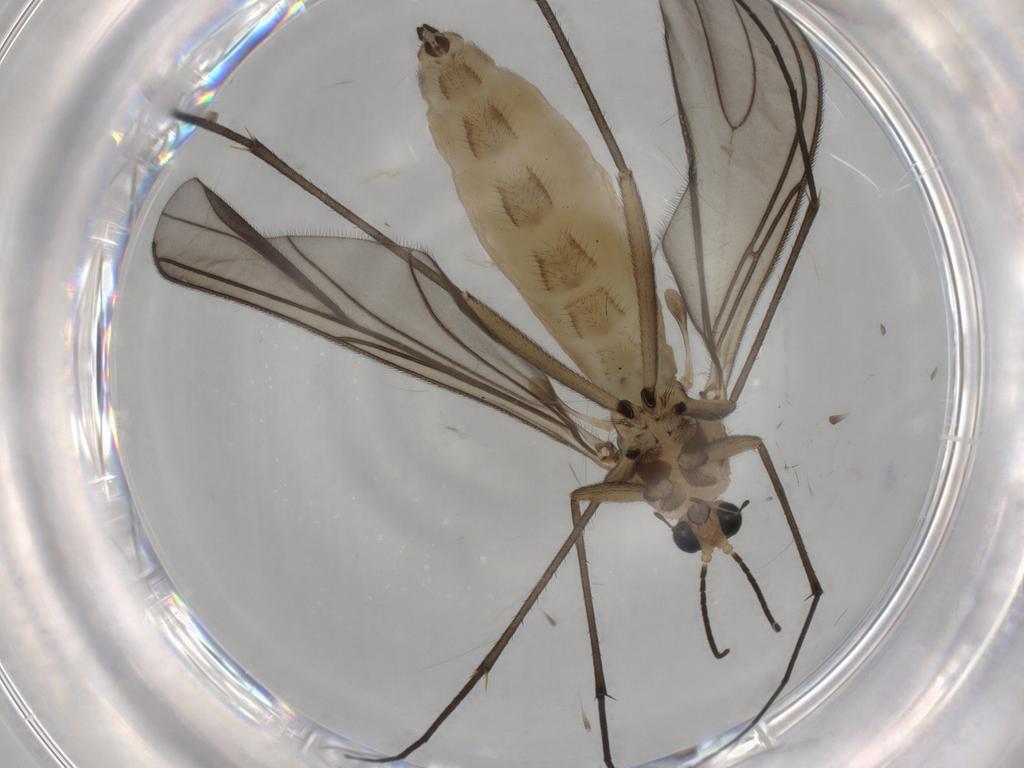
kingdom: Animalia
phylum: Arthropoda
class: Insecta
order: Diptera
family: Sciaridae
